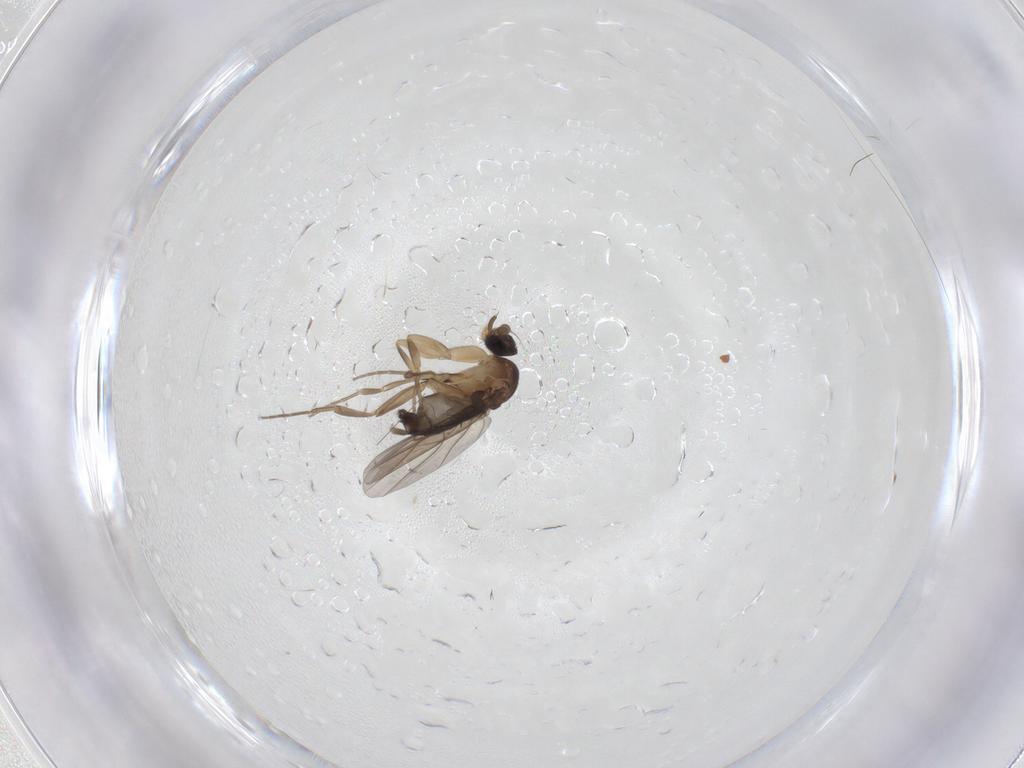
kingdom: Animalia
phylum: Arthropoda
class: Insecta
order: Diptera
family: Phoridae
